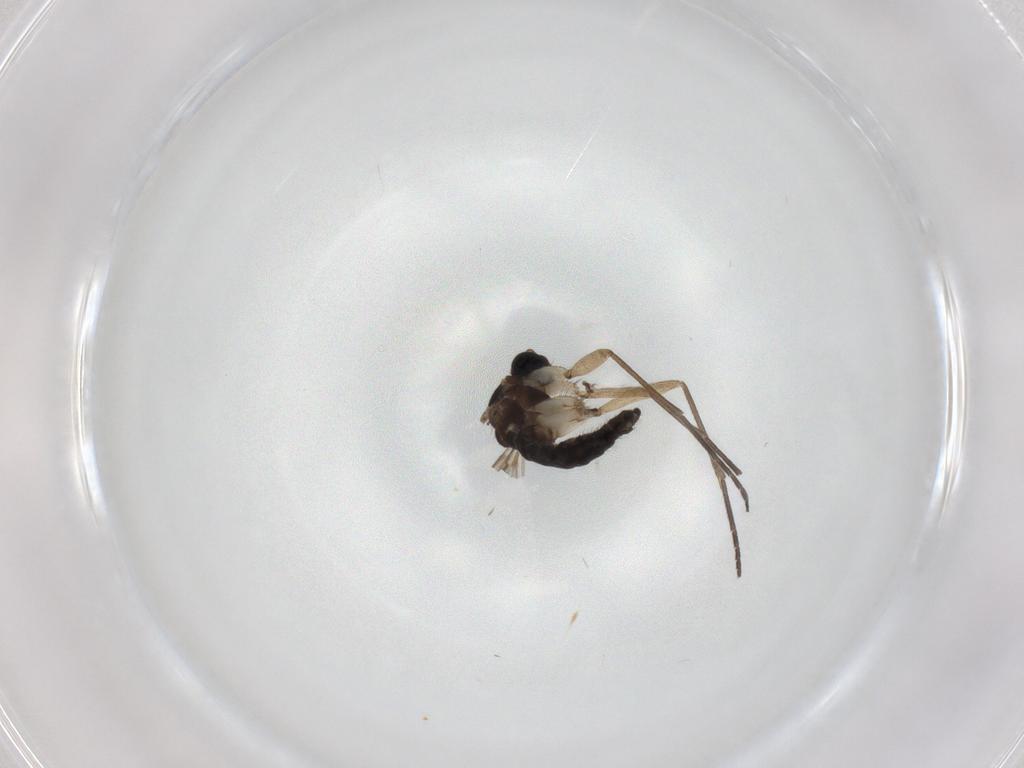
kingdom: Animalia
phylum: Arthropoda
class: Insecta
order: Diptera
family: Sciaridae
